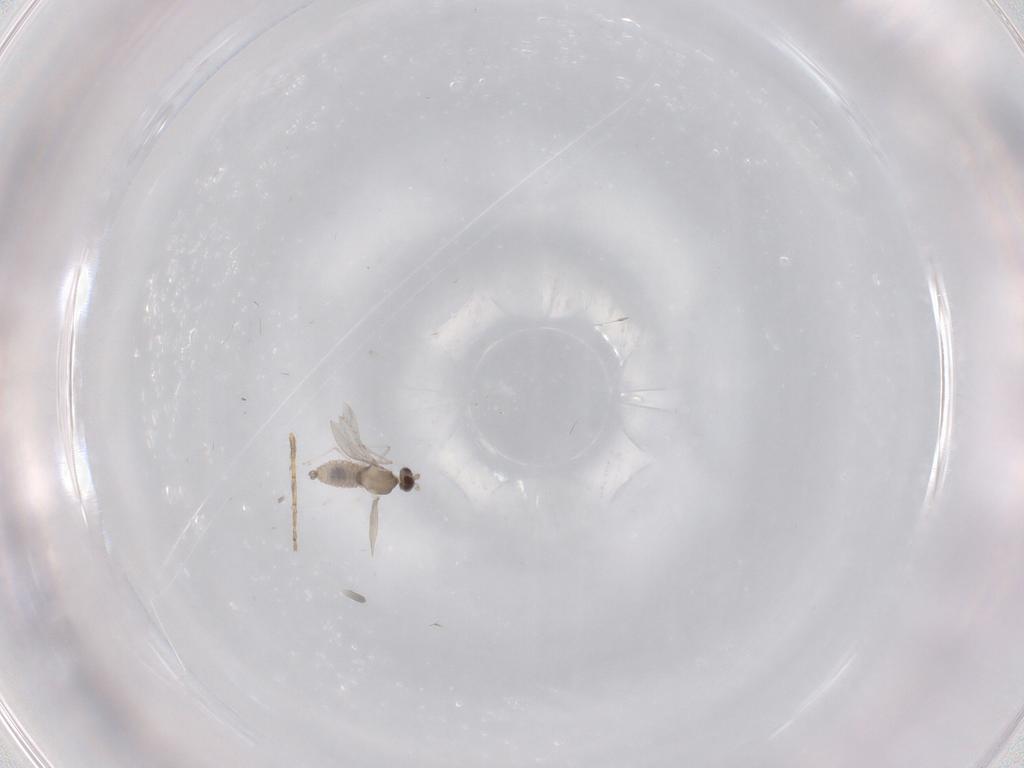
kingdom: Animalia
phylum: Arthropoda
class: Insecta
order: Diptera
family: Cecidomyiidae
